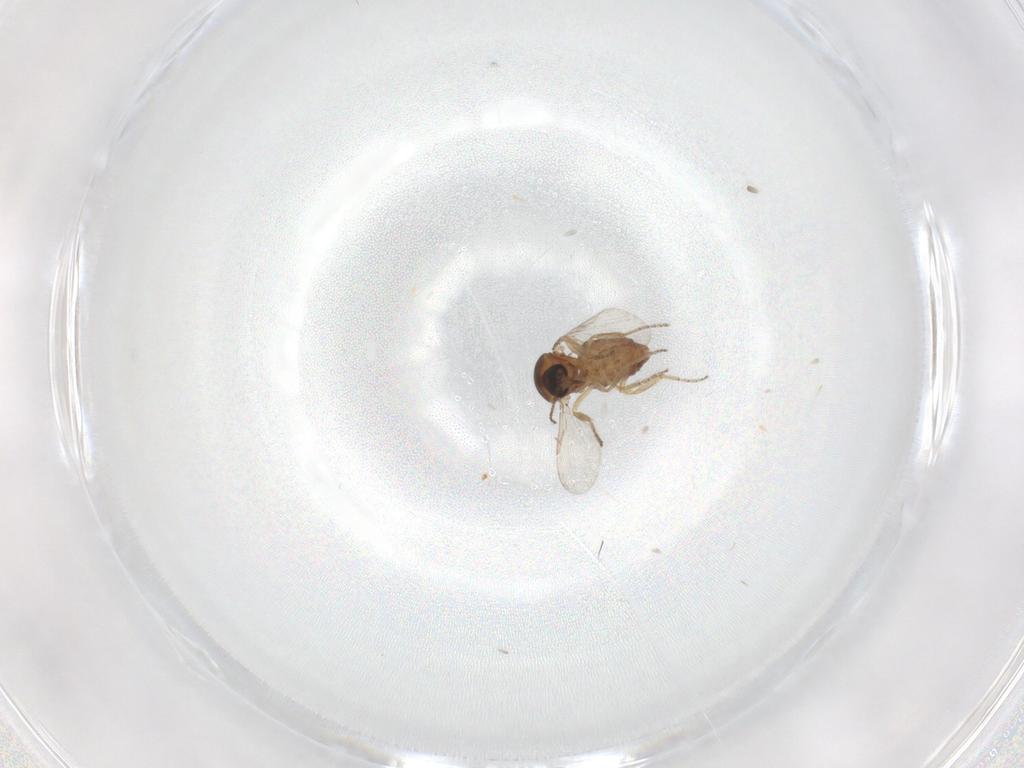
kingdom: Animalia
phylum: Arthropoda
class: Insecta
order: Diptera
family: Ceratopogonidae
